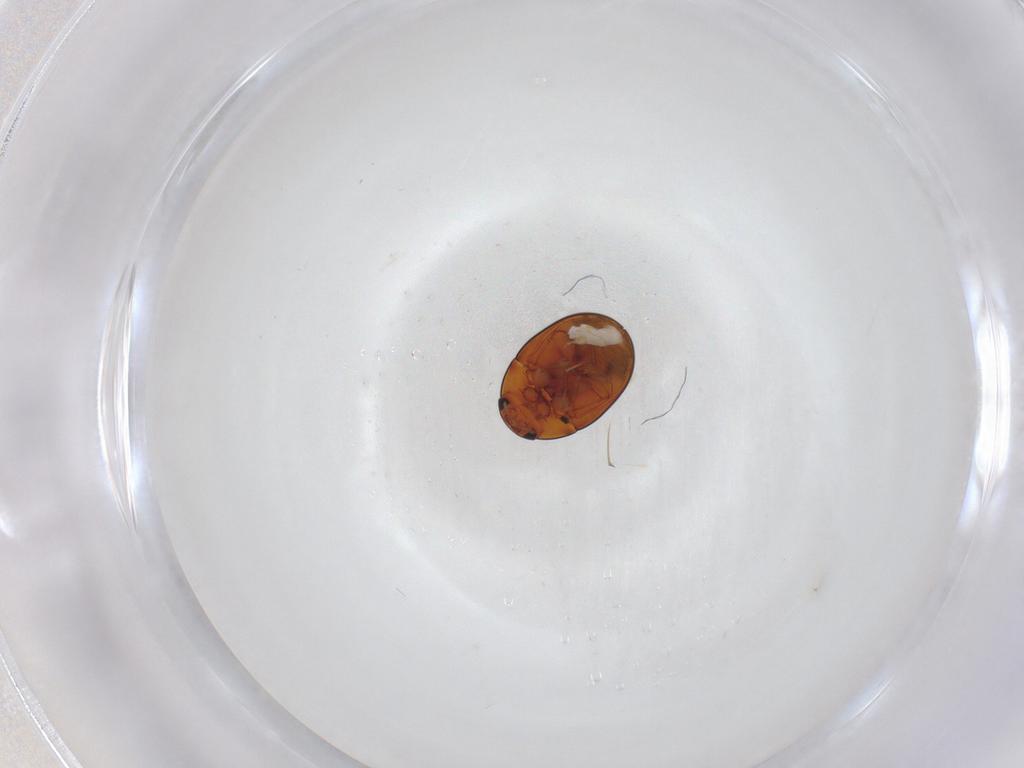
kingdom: Animalia
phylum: Arthropoda
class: Insecta
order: Coleoptera
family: Phalacridae
